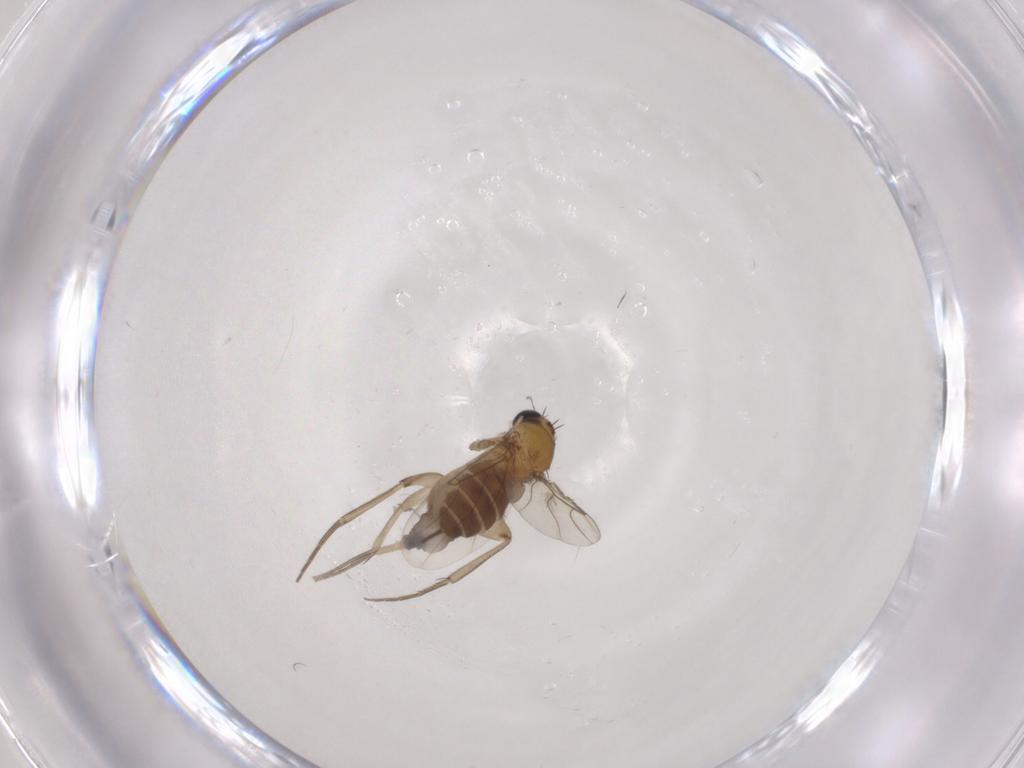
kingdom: Animalia
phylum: Arthropoda
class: Insecta
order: Diptera
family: Phoridae
